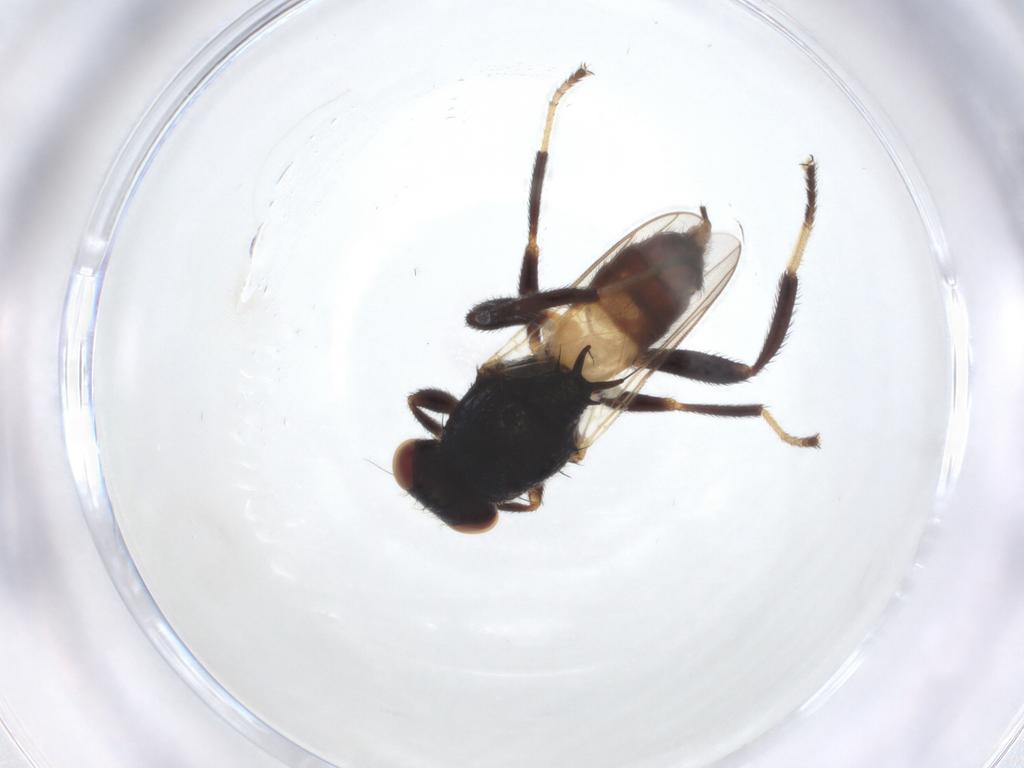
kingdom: Animalia
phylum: Arthropoda
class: Insecta
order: Diptera
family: Chloropidae
